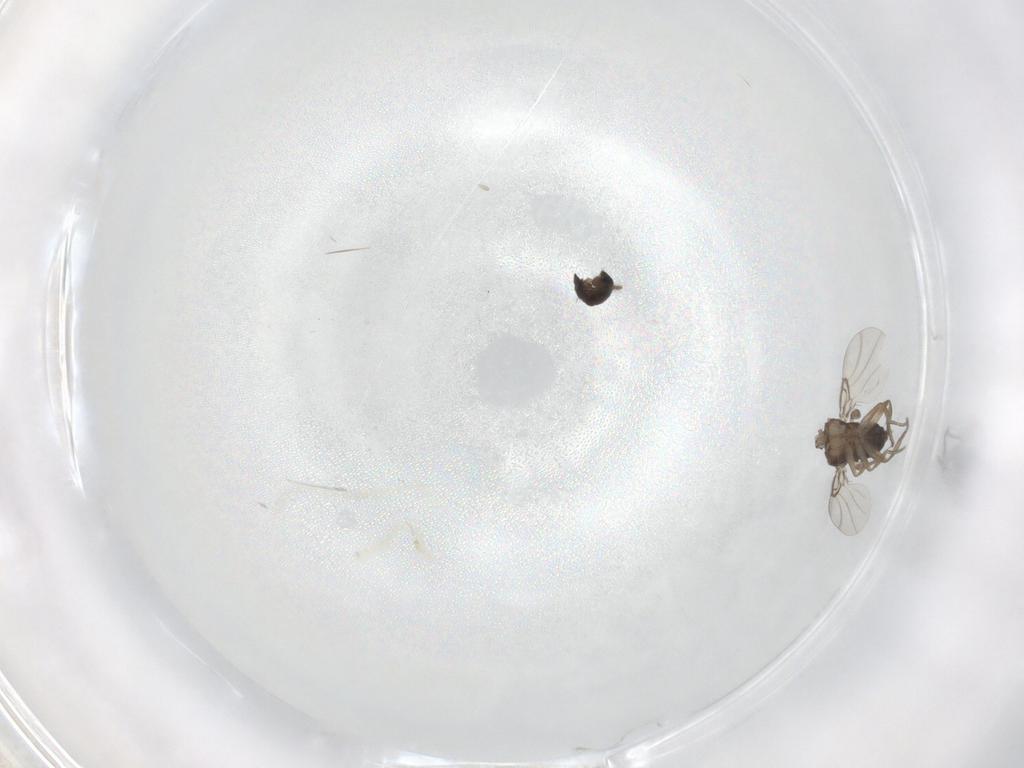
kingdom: Animalia
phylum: Arthropoda
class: Insecta
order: Diptera
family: Phoridae
